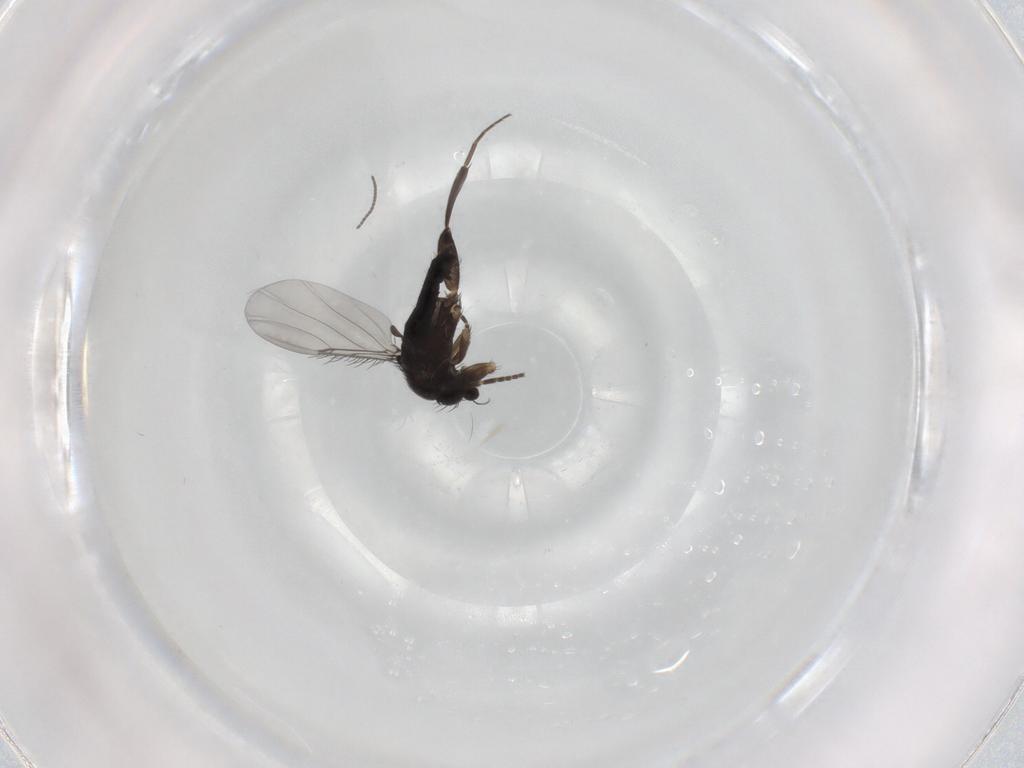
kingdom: Animalia
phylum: Arthropoda
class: Insecta
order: Diptera
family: Phoridae
